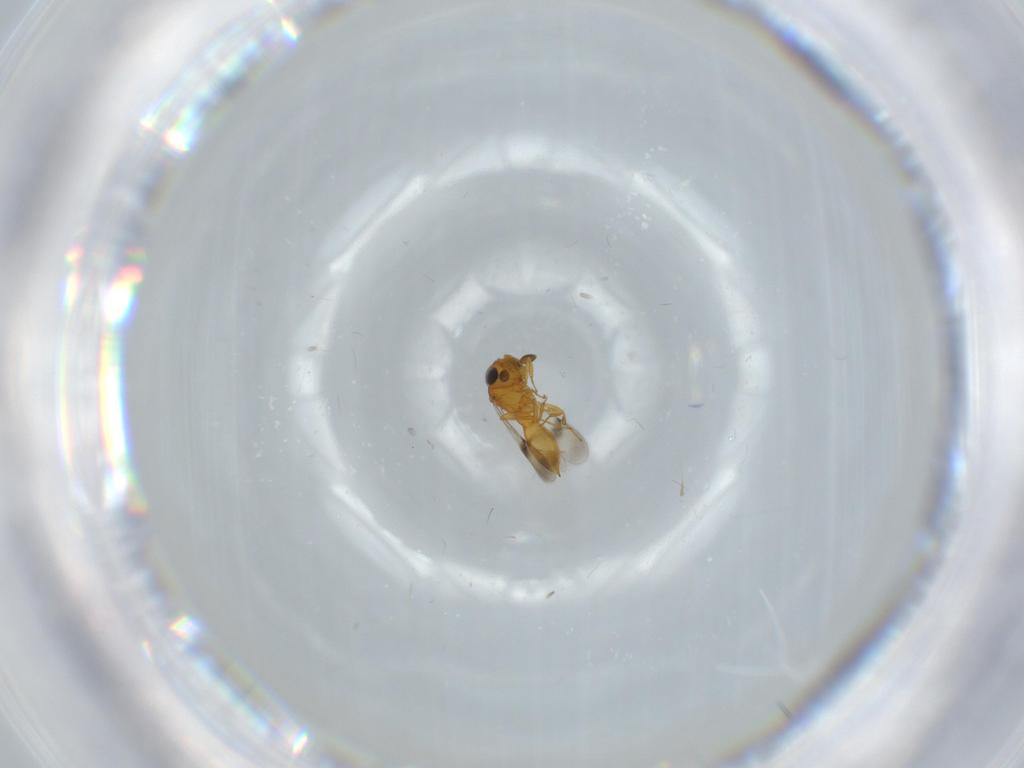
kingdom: Animalia
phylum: Arthropoda
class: Insecta
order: Hymenoptera
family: Scelionidae
